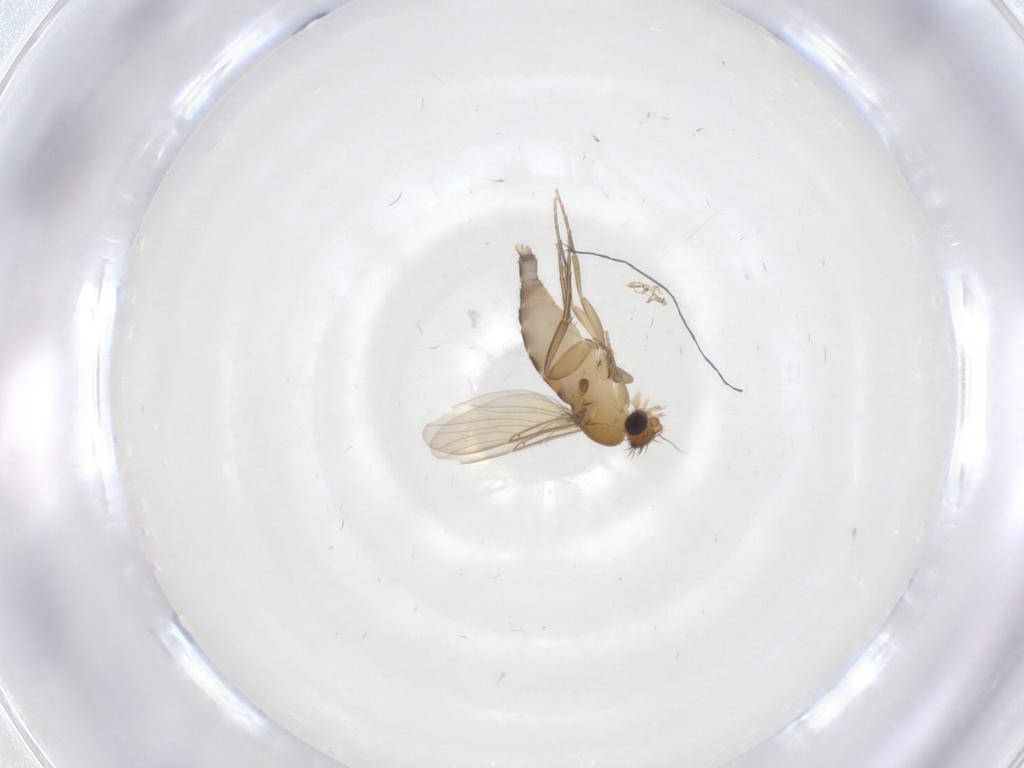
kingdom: Animalia
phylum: Arthropoda
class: Insecta
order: Diptera
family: Phoridae
